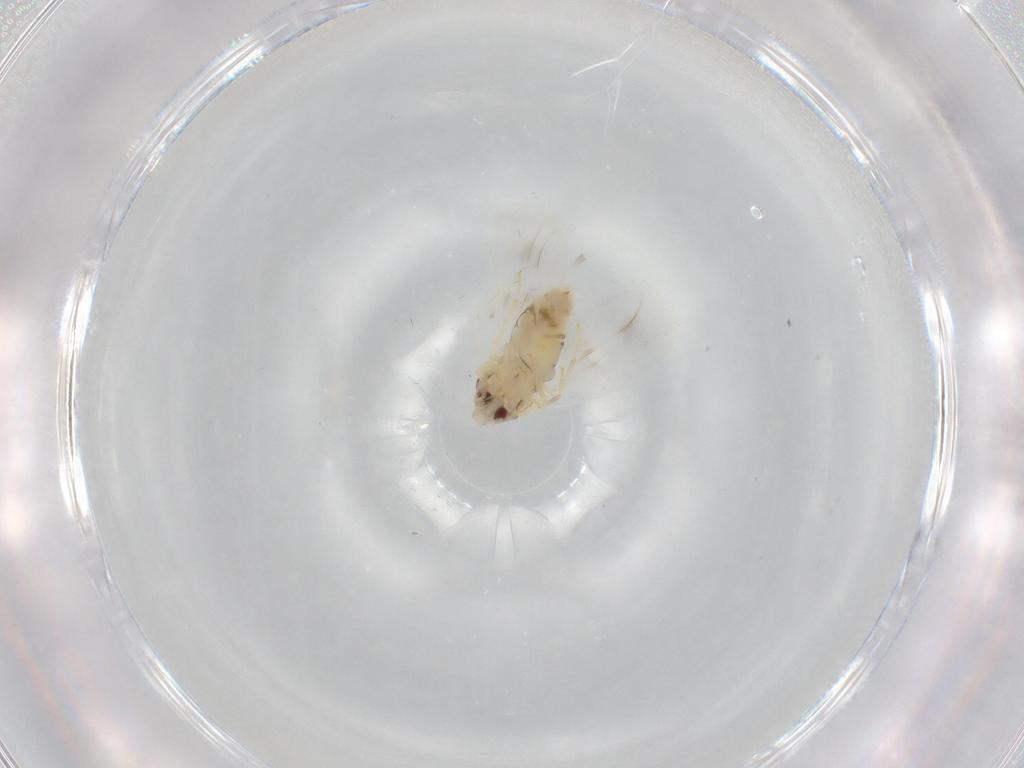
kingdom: Animalia
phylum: Arthropoda
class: Insecta
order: Hemiptera
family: Aleyrodidae
